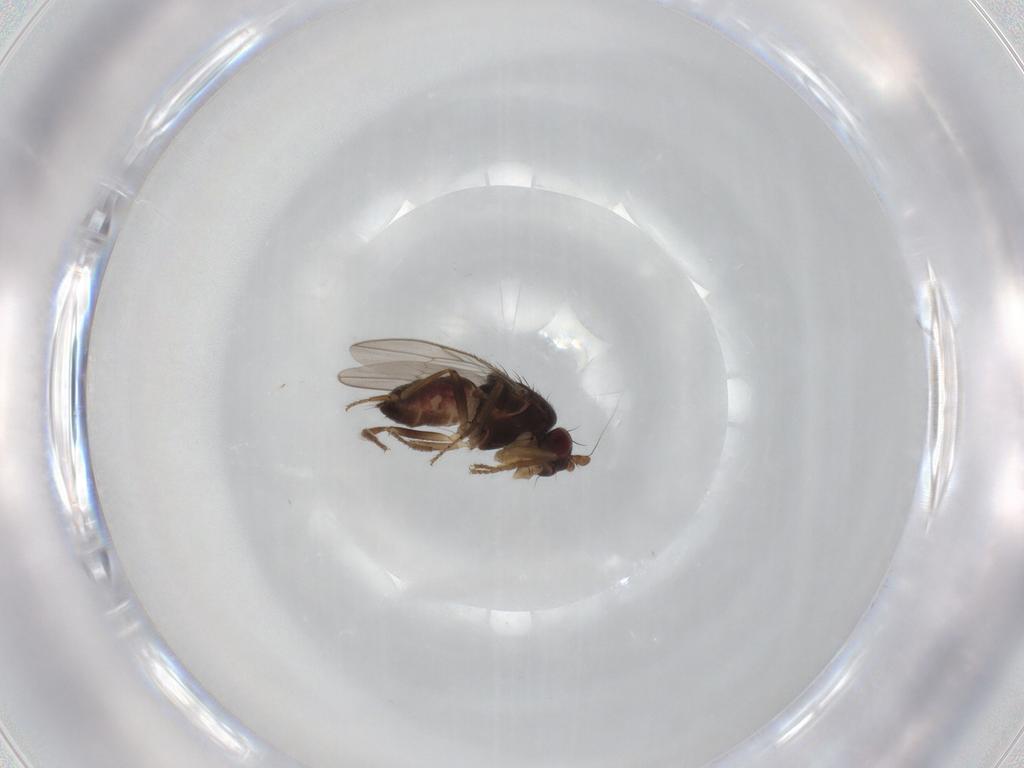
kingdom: Animalia
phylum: Arthropoda
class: Insecta
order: Diptera
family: Sphaeroceridae
